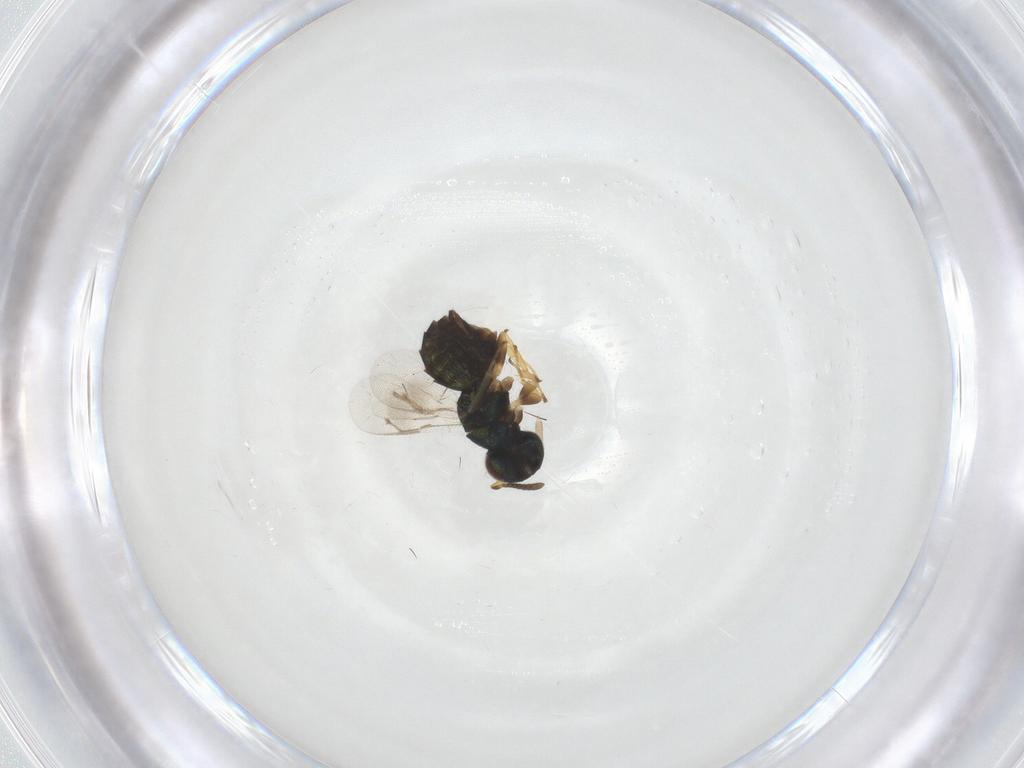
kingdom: Animalia
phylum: Arthropoda
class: Insecta
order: Hymenoptera
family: Pteromalidae
